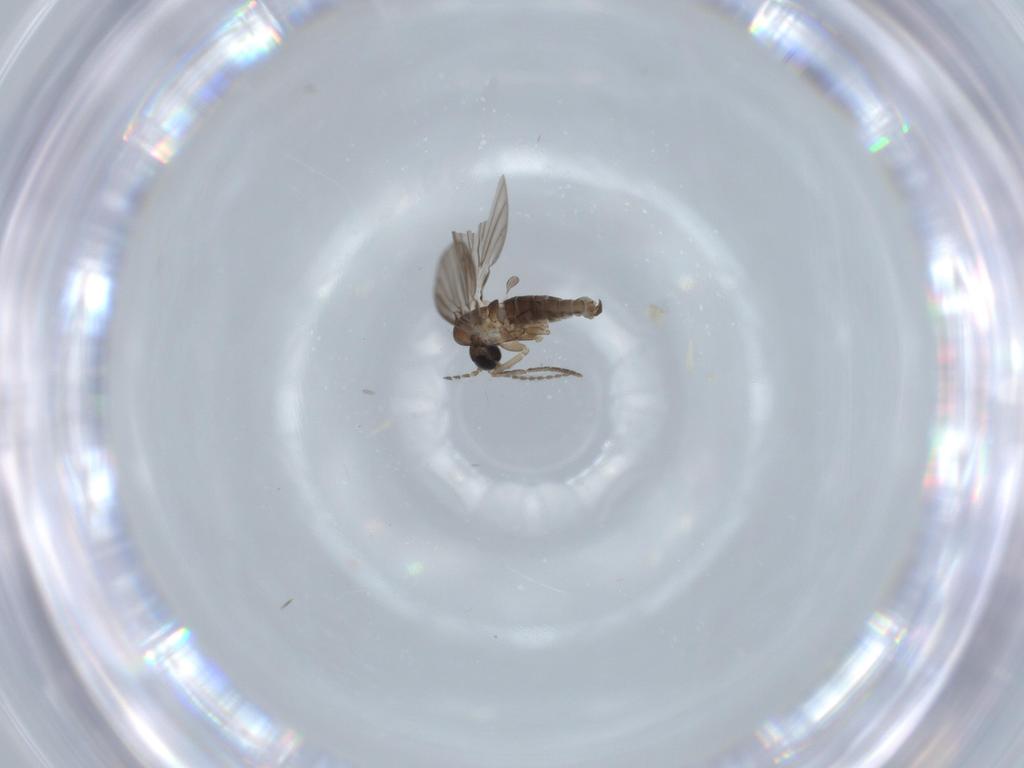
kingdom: Animalia
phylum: Arthropoda
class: Insecta
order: Diptera
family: Psychodidae
